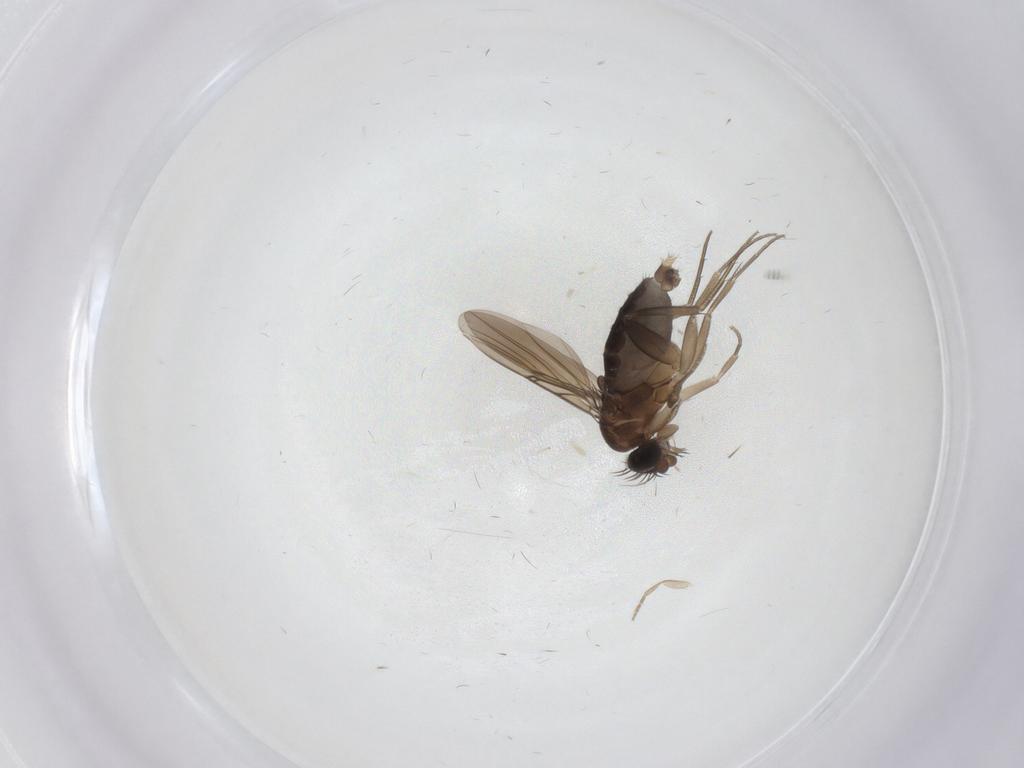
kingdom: Animalia
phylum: Arthropoda
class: Insecta
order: Diptera
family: Phoridae
